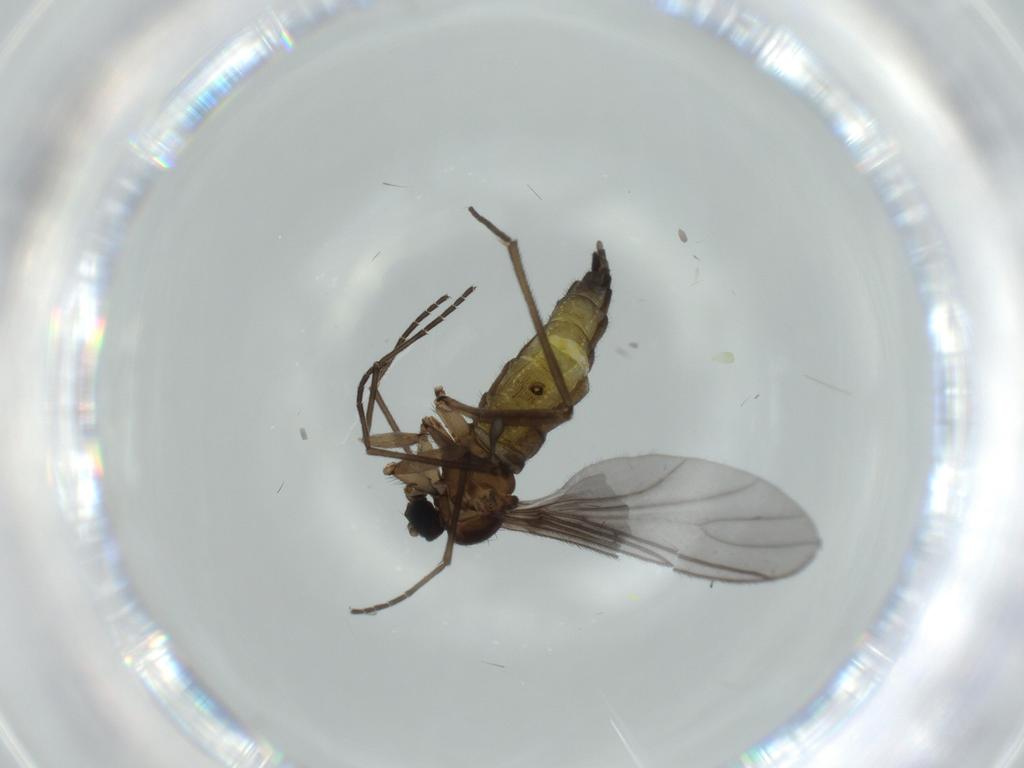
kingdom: Animalia
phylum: Arthropoda
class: Insecta
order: Diptera
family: Sciaridae
